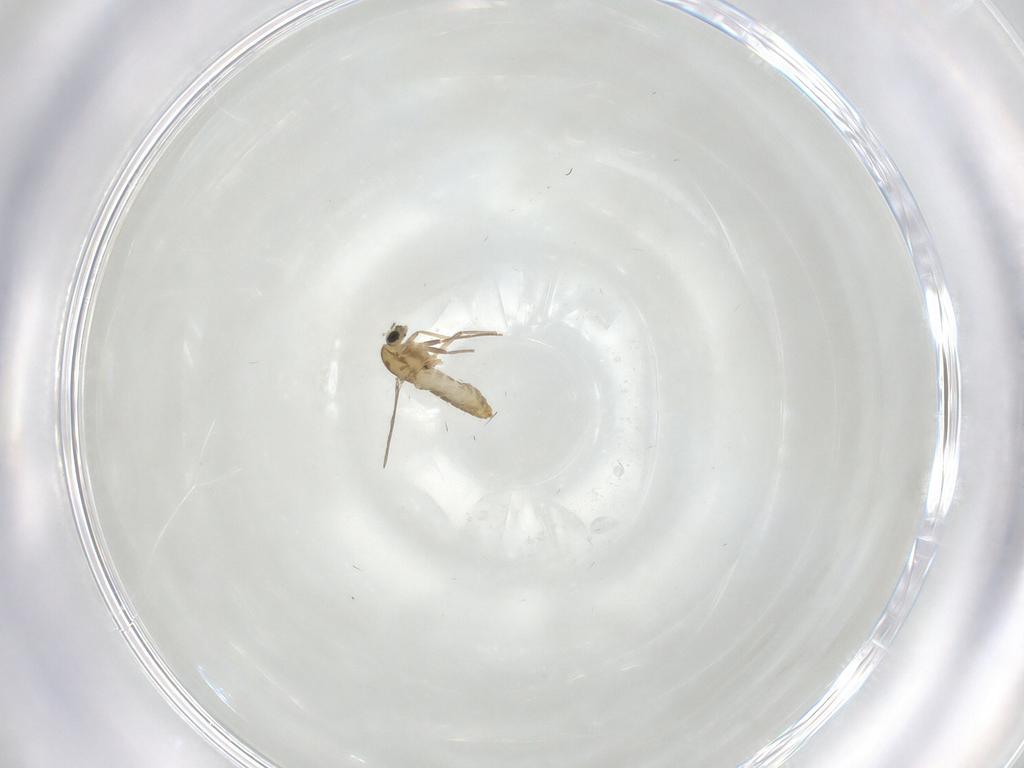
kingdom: Animalia
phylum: Arthropoda
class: Insecta
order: Diptera
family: Chironomidae
